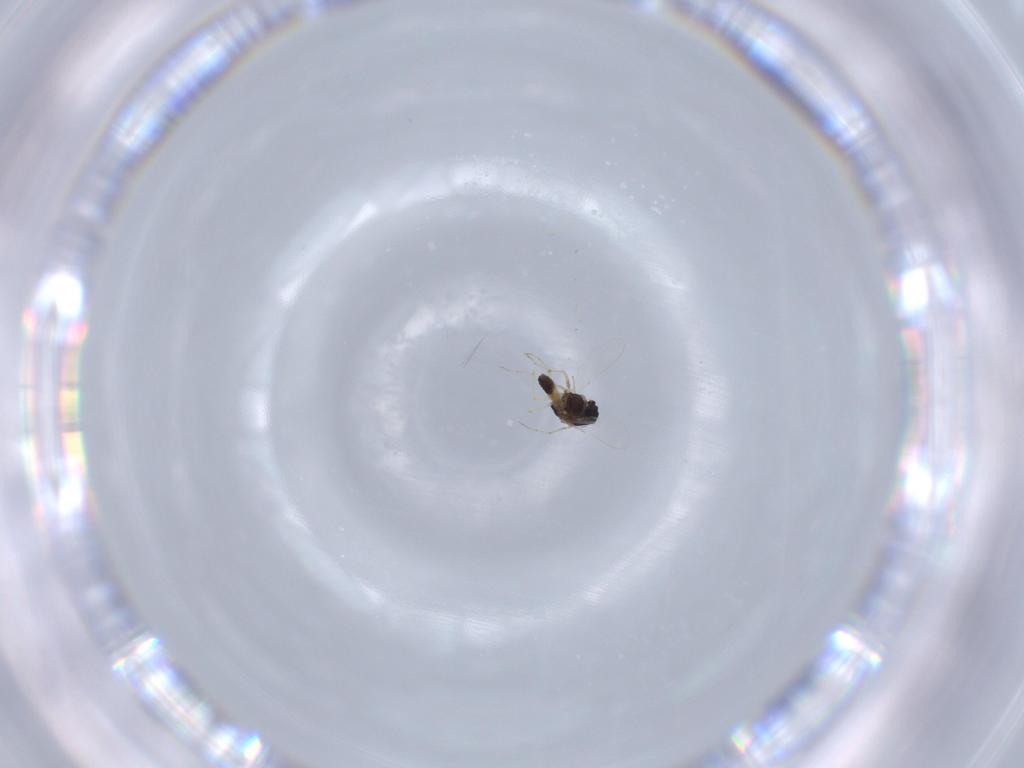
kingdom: Animalia
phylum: Arthropoda
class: Insecta
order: Diptera
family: Chironomidae
